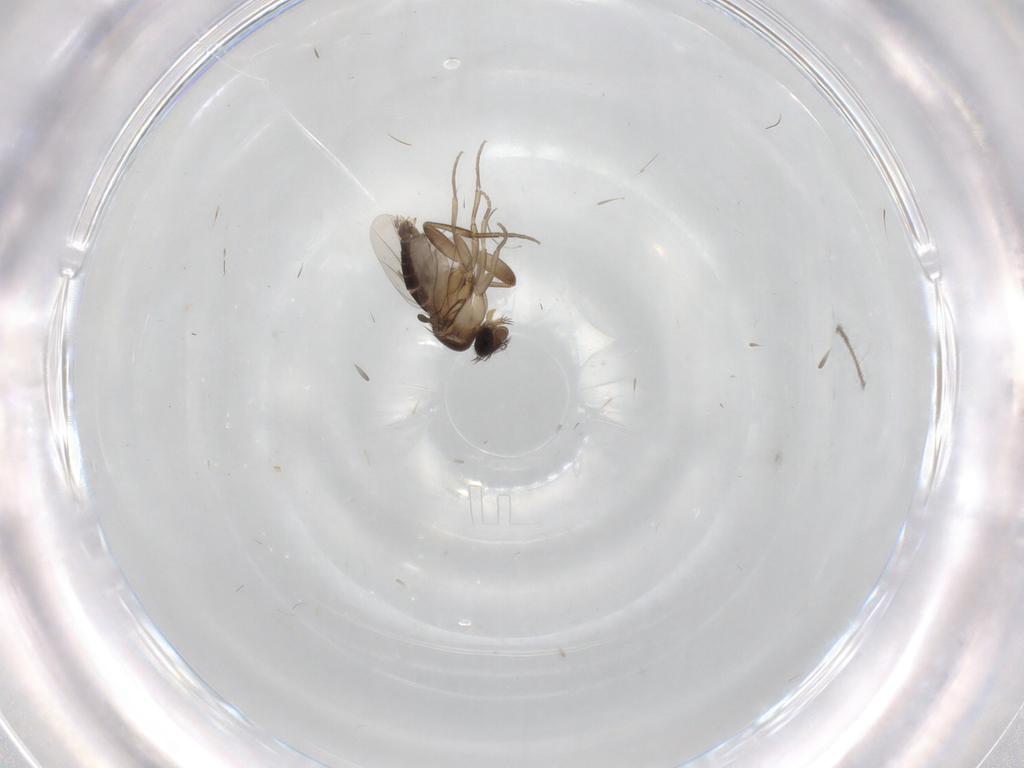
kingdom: Animalia
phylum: Arthropoda
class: Insecta
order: Diptera
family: Phoridae
